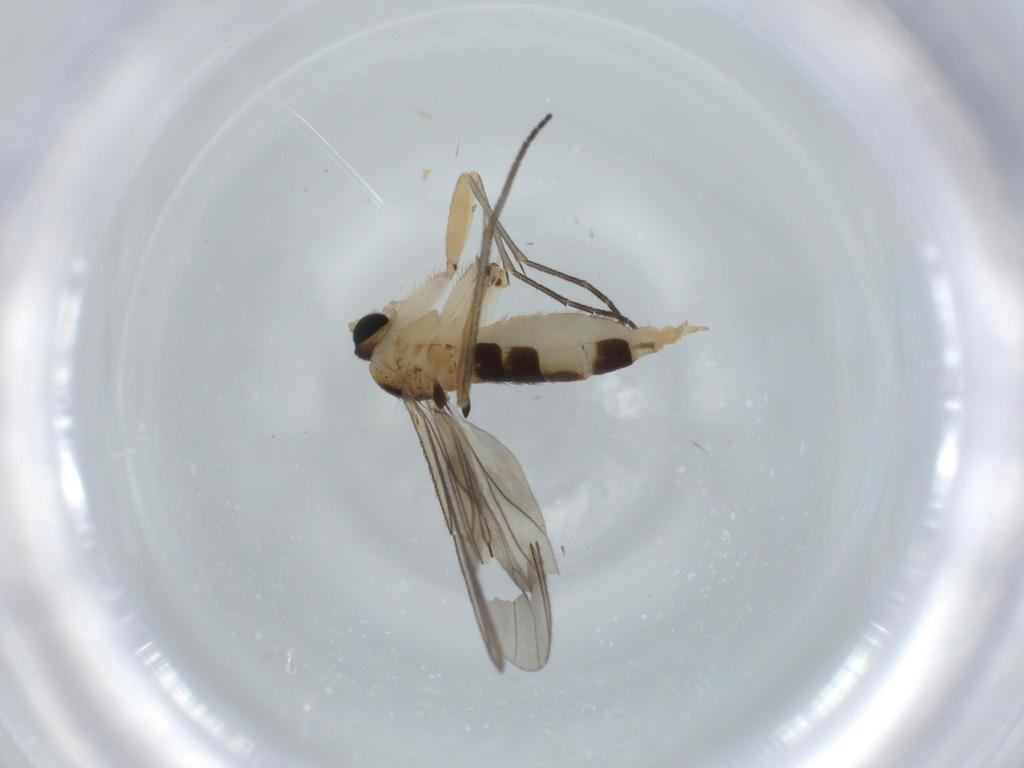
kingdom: Animalia
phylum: Arthropoda
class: Insecta
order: Diptera
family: Sciaridae
